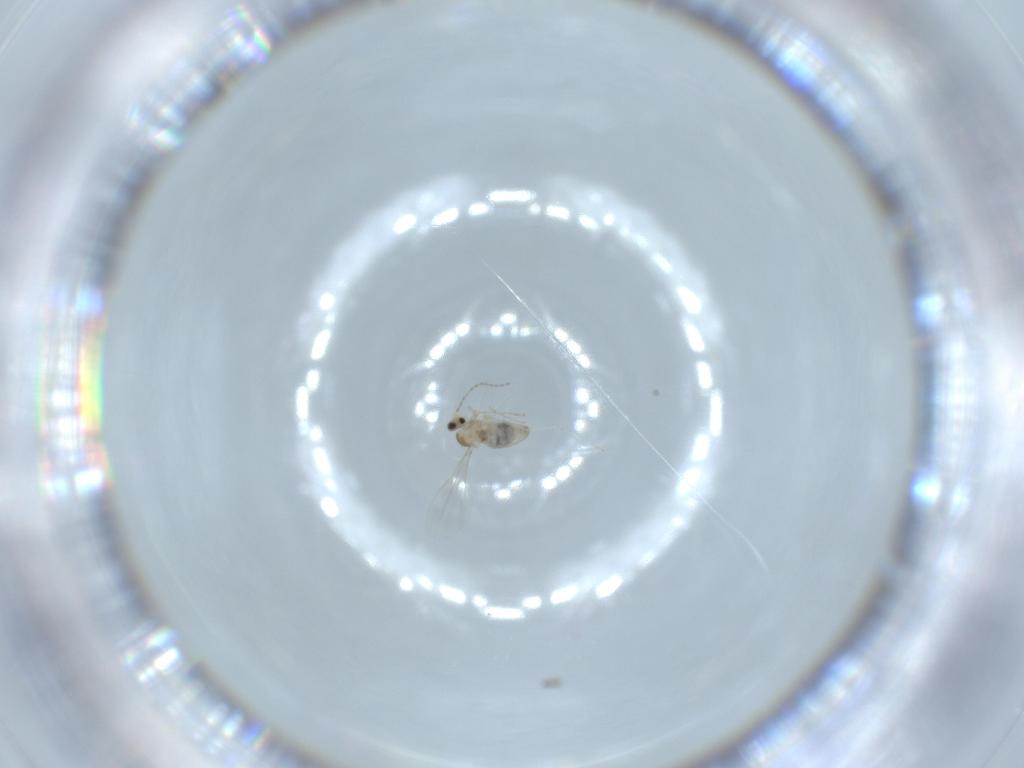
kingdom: Animalia
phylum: Arthropoda
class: Insecta
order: Diptera
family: Cecidomyiidae
